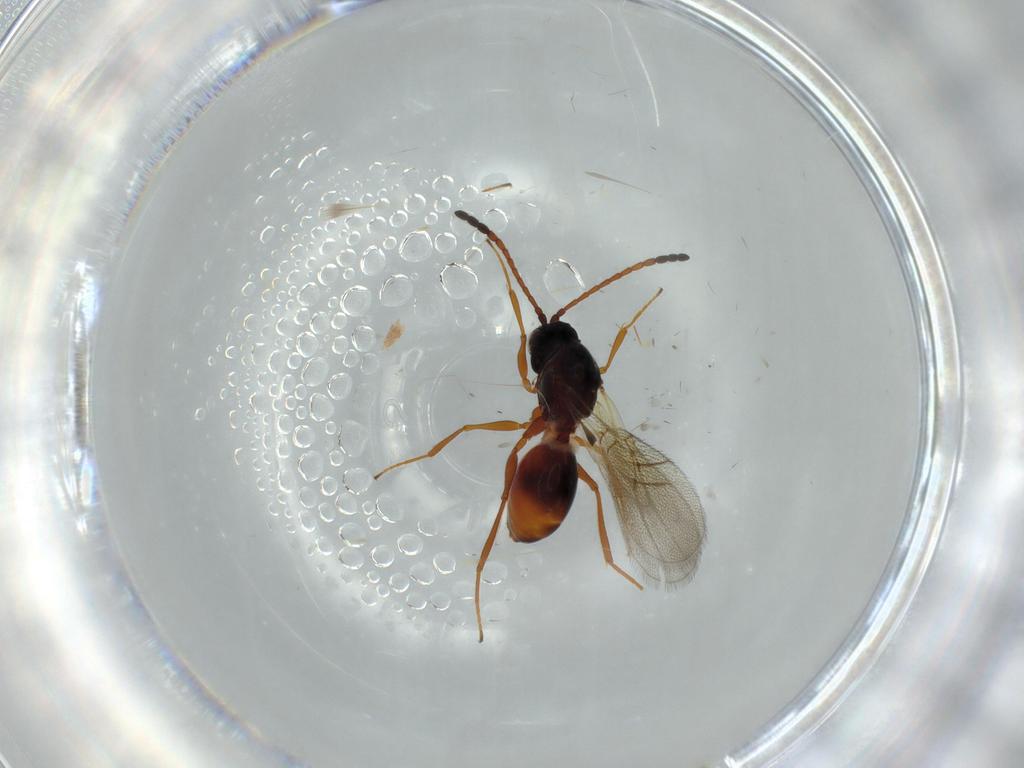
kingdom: Animalia
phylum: Arthropoda
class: Insecta
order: Hymenoptera
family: Figitidae
